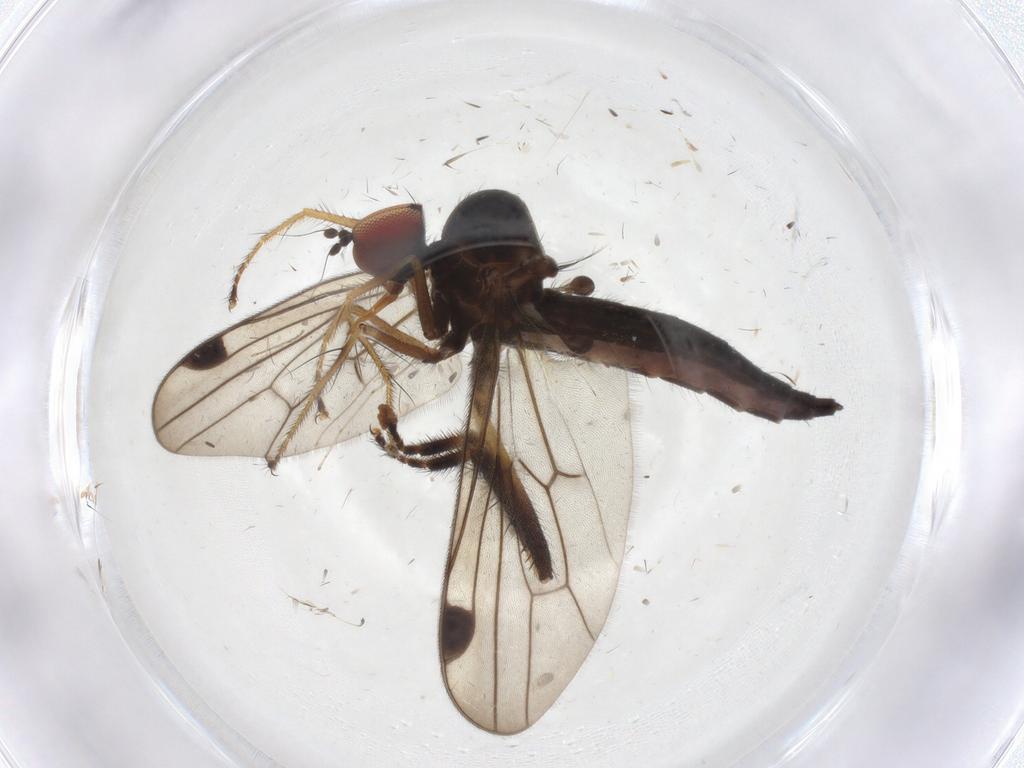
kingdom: Animalia
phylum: Arthropoda
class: Insecta
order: Diptera
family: Hybotidae
